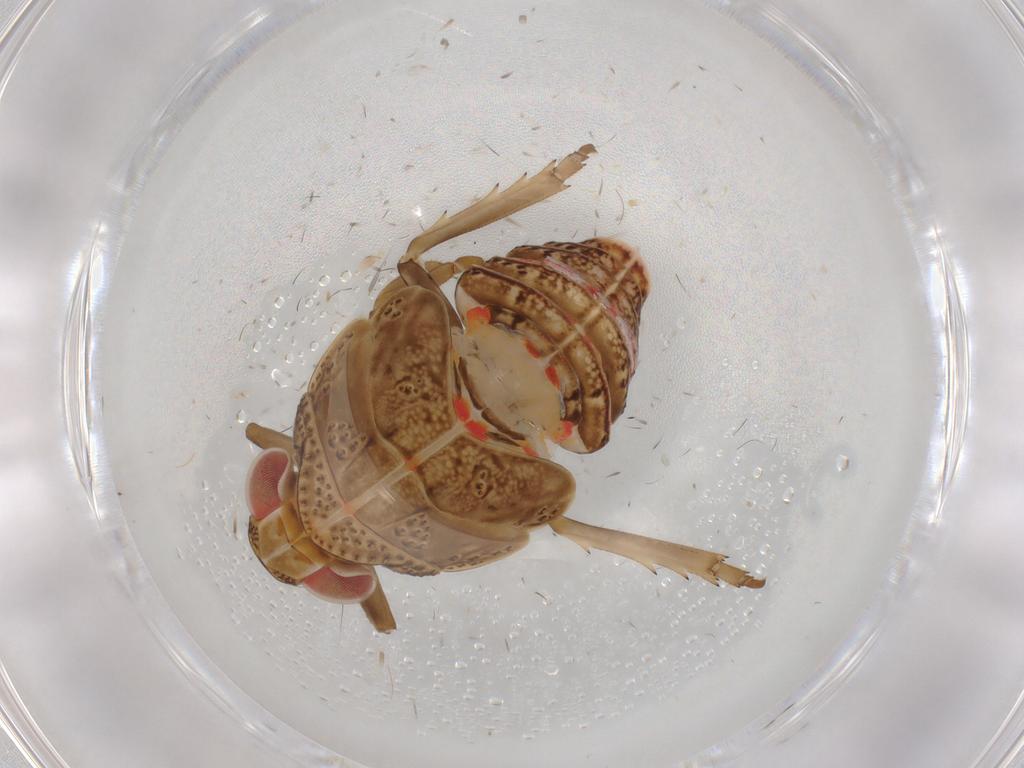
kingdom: Animalia
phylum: Arthropoda
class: Insecta
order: Hemiptera
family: Issidae
